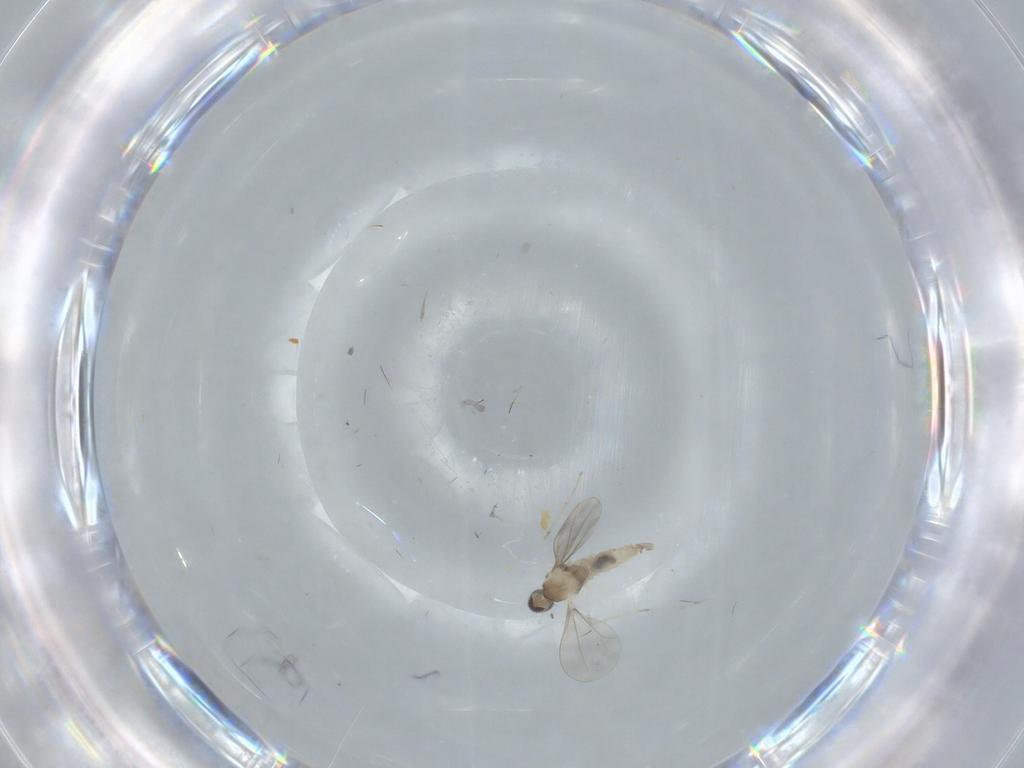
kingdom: Animalia
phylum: Arthropoda
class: Insecta
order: Diptera
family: Cecidomyiidae
